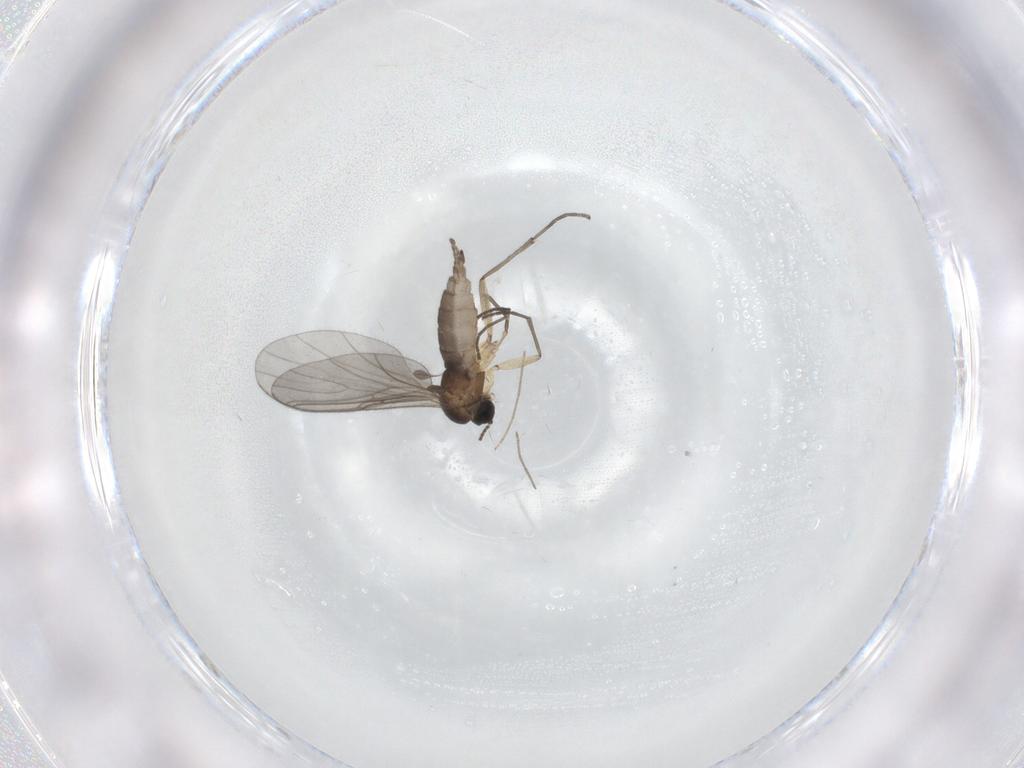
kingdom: Animalia
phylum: Arthropoda
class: Insecta
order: Diptera
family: Sciaridae
